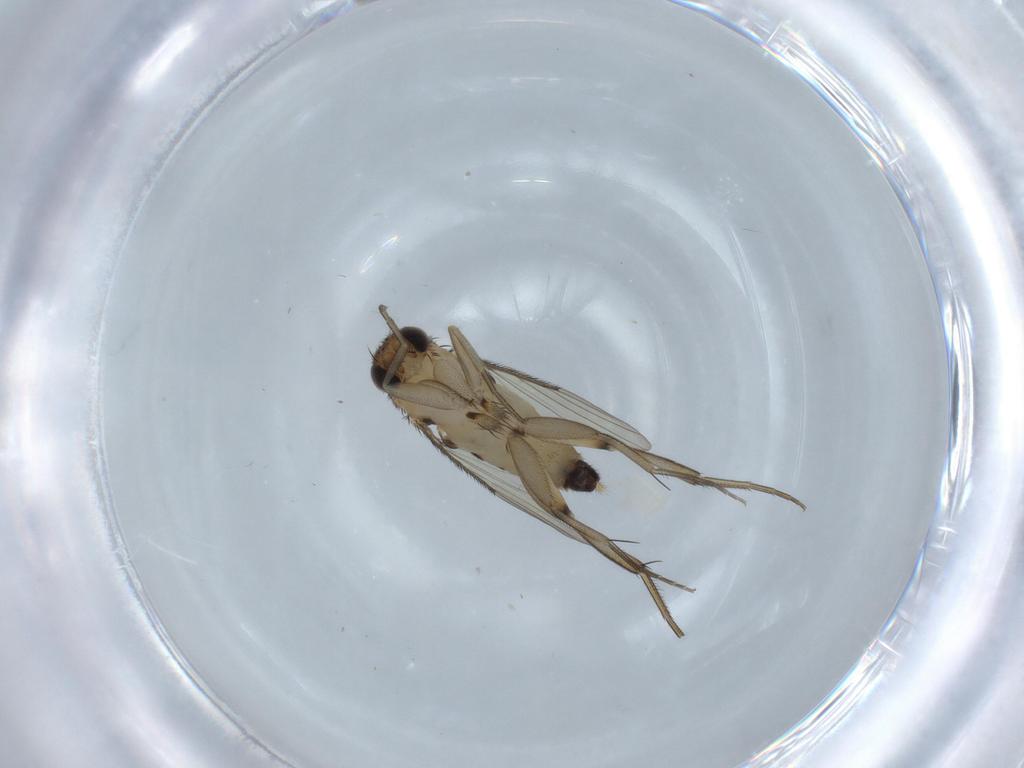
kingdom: Animalia
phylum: Arthropoda
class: Insecta
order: Diptera
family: Phoridae
